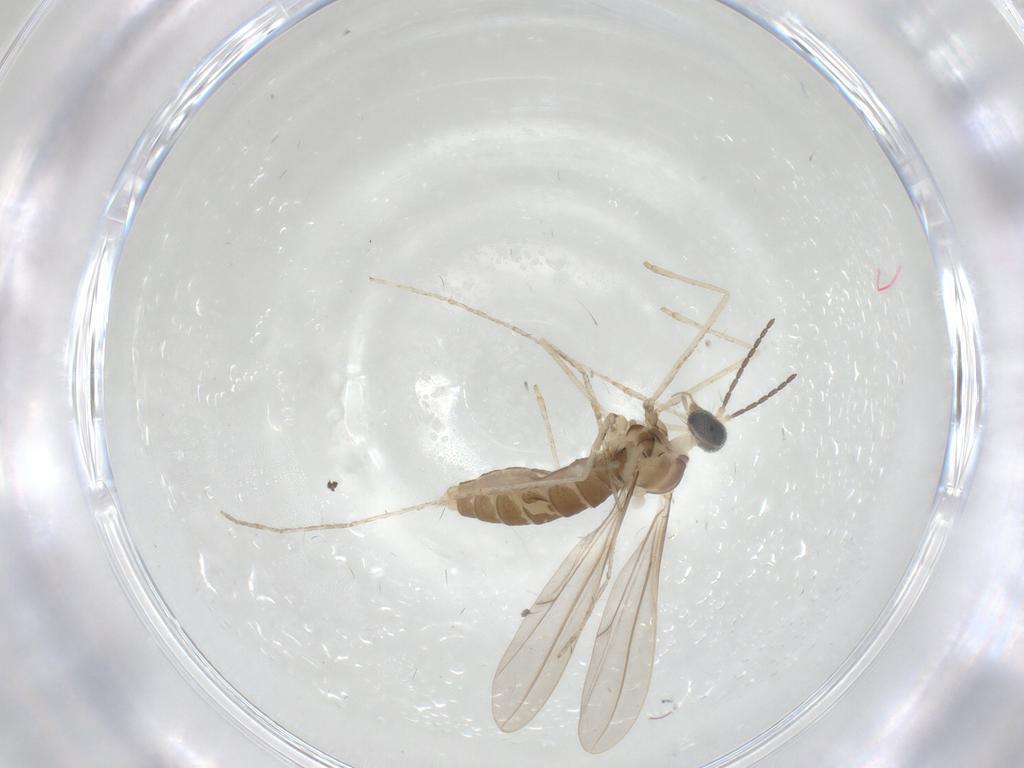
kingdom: Animalia
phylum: Arthropoda
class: Insecta
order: Diptera
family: Cecidomyiidae
